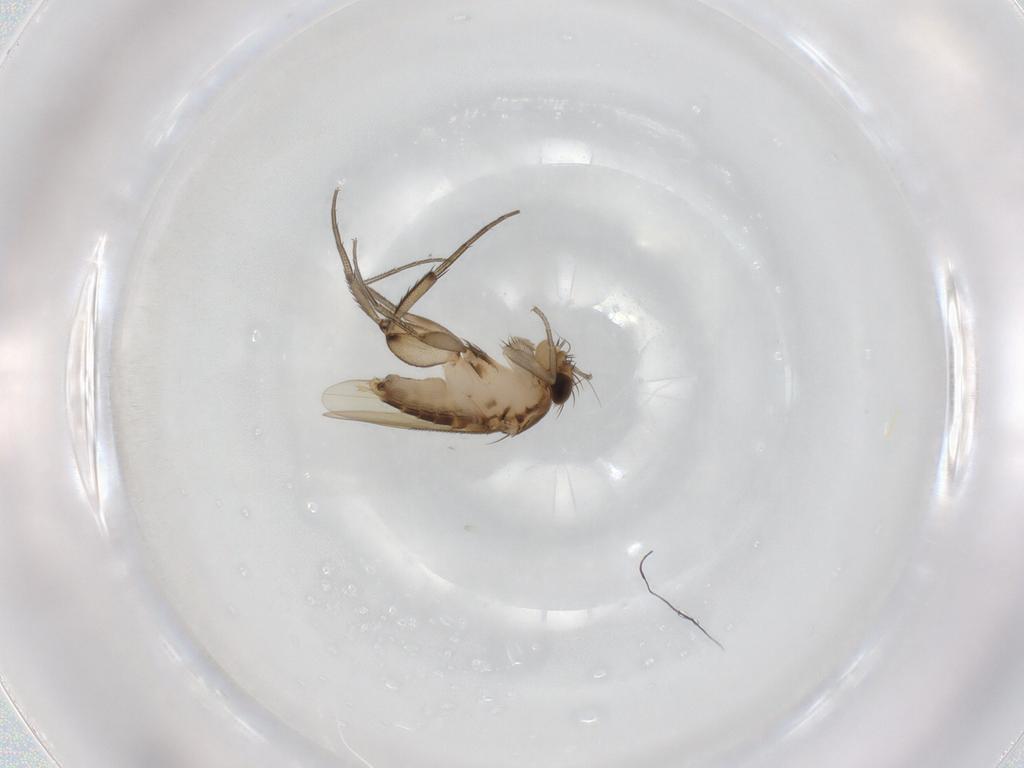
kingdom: Animalia
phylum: Arthropoda
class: Insecta
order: Diptera
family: Phoridae
